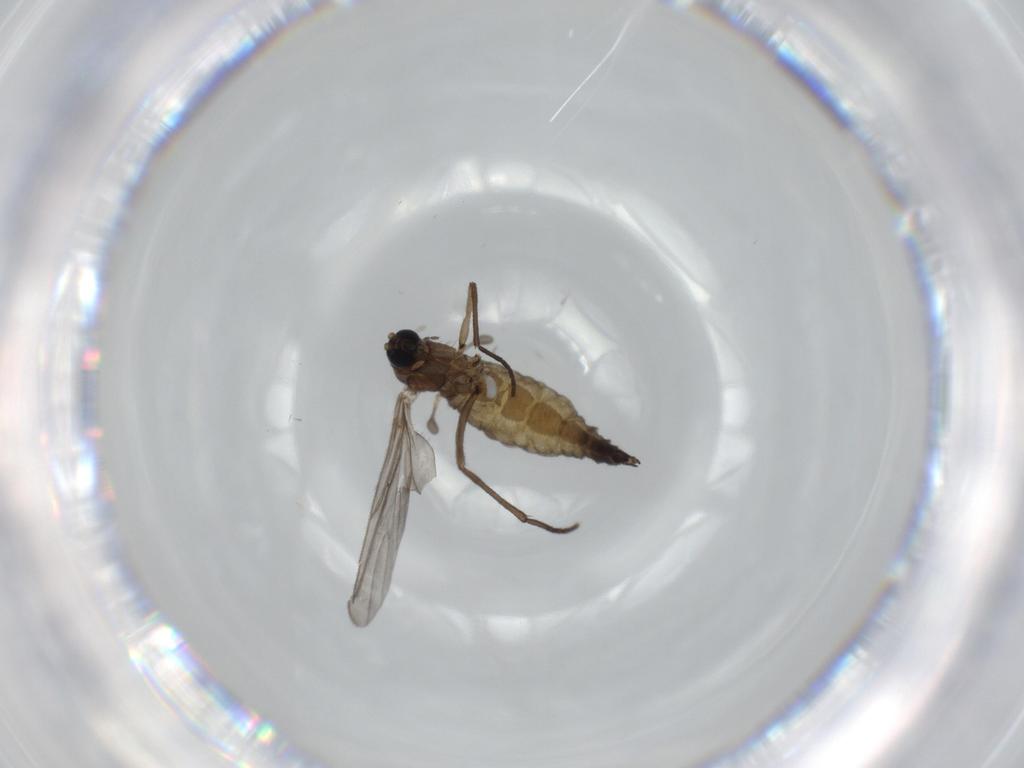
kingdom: Animalia
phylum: Arthropoda
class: Insecta
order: Diptera
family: Sciaridae
